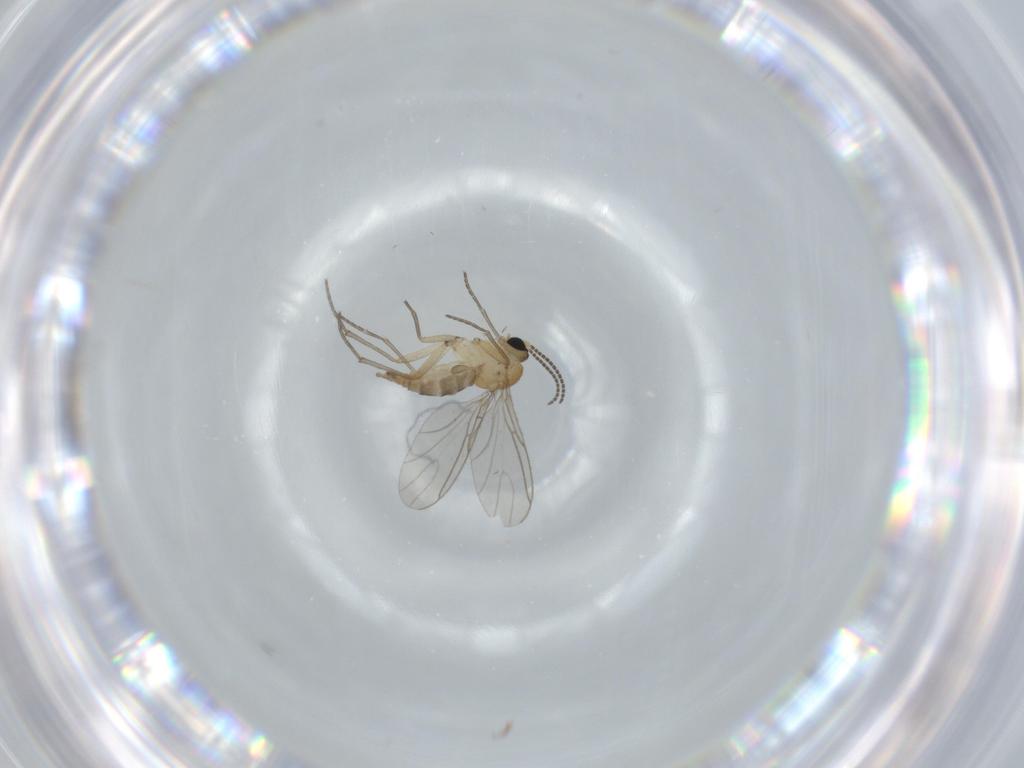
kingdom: Animalia
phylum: Arthropoda
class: Insecta
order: Diptera
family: Sciaridae
